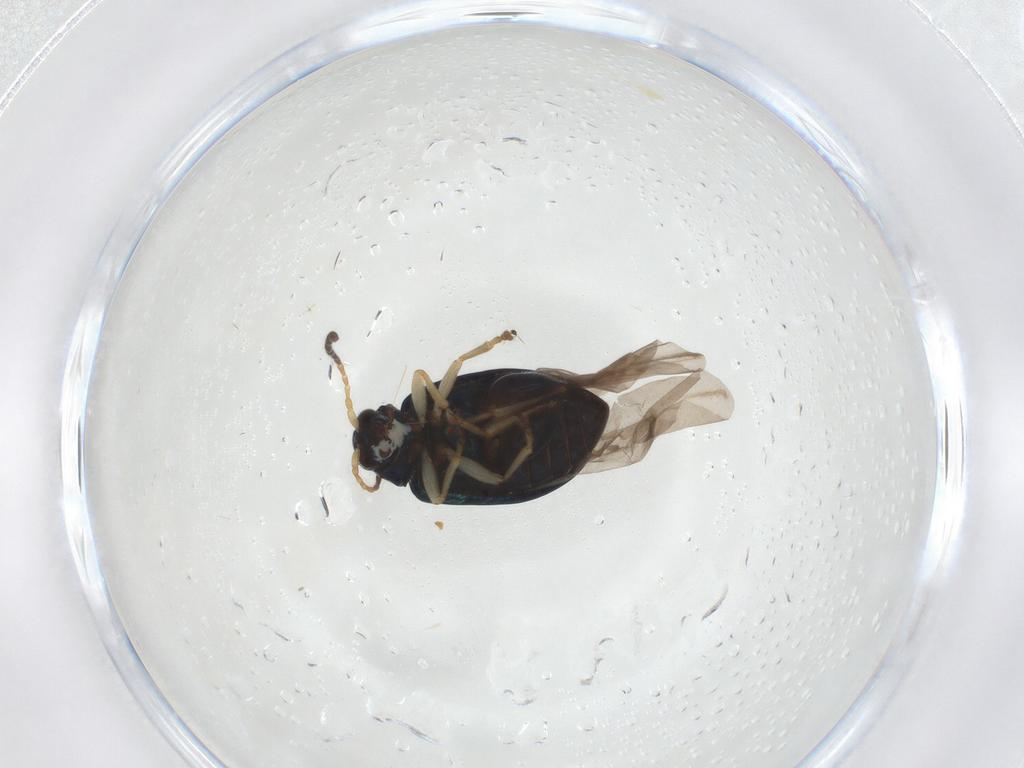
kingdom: Animalia
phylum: Arthropoda
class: Insecta
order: Coleoptera
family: Chrysomelidae
